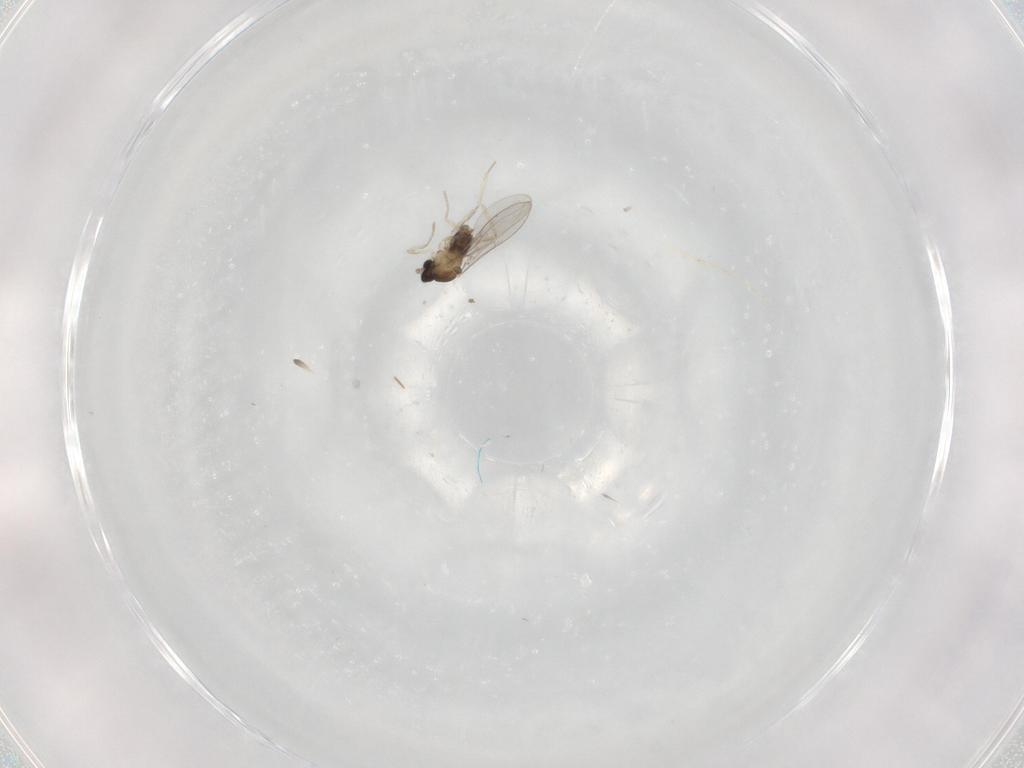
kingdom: Animalia
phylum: Arthropoda
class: Insecta
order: Diptera
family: Cecidomyiidae
